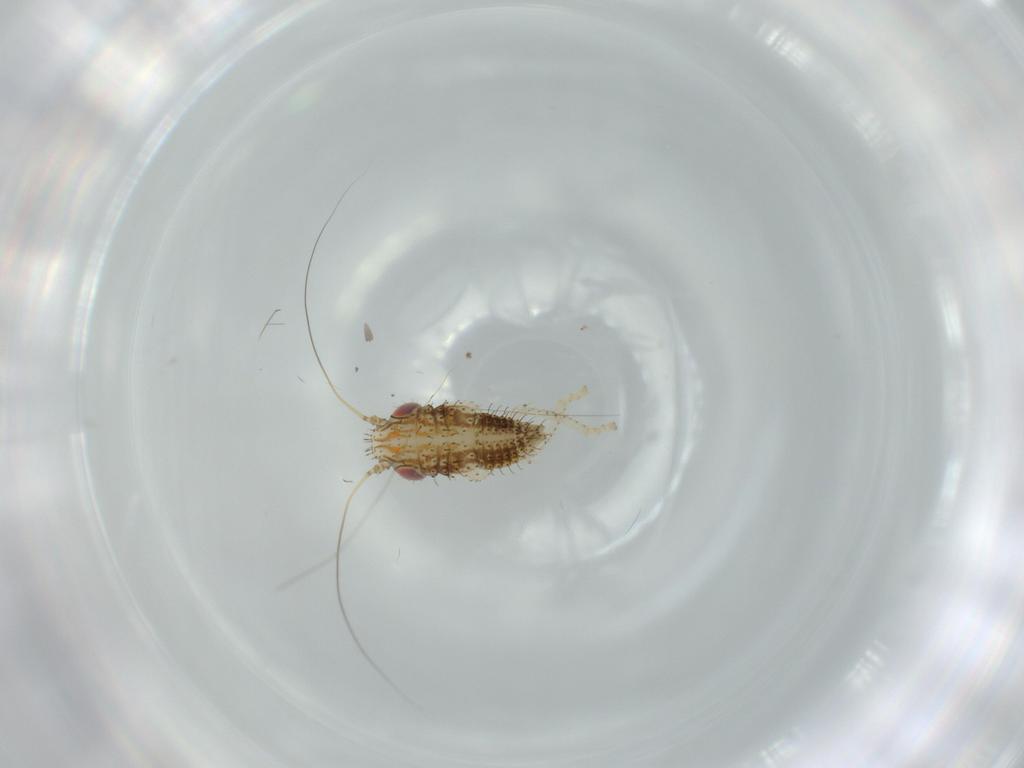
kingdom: Animalia
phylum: Arthropoda
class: Insecta
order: Hemiptera
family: Cicadellidae
